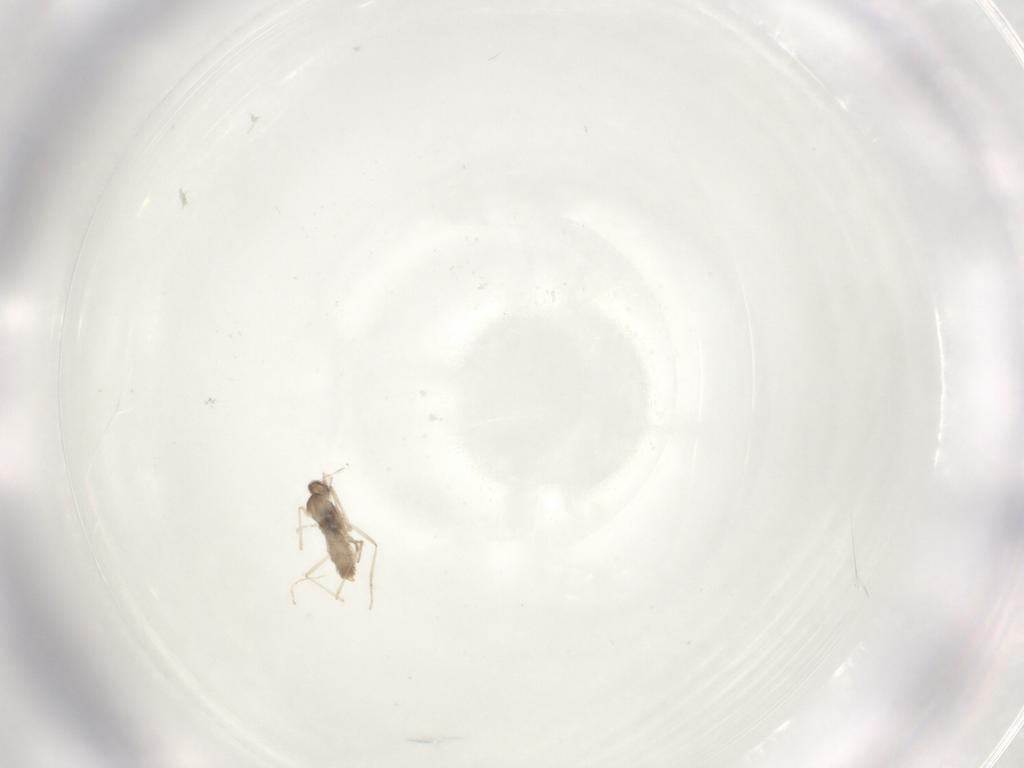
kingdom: Animalia
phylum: Arthropoda
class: Insecta
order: Diptera
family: Cecidomyiidae
